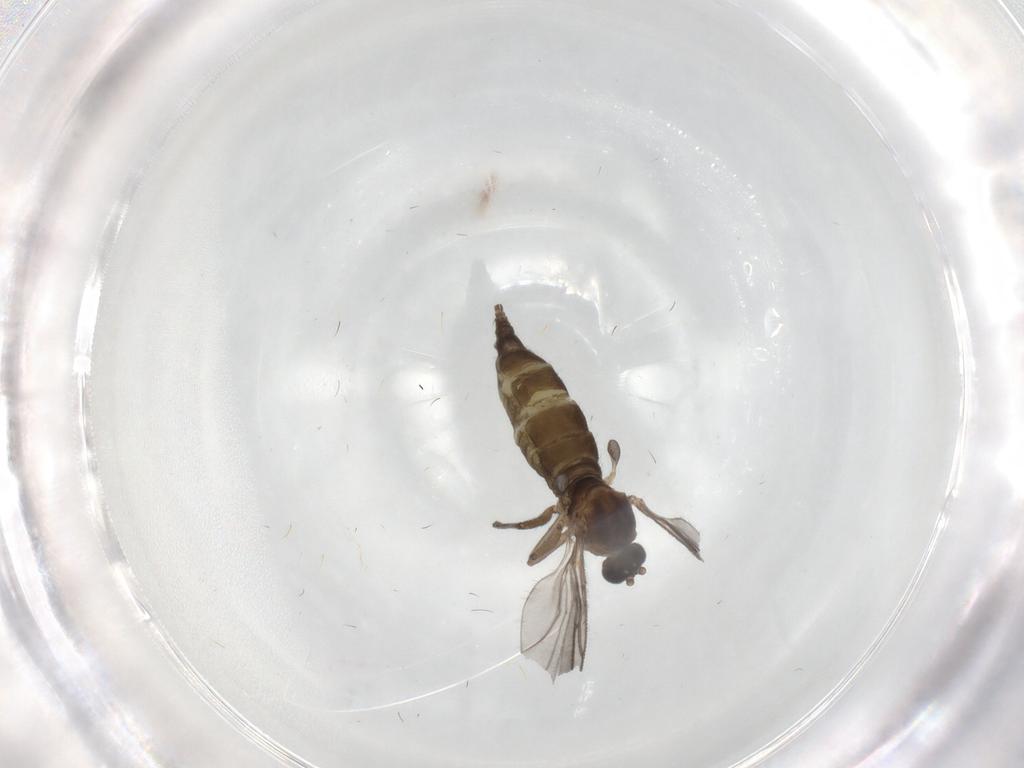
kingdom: Animalia
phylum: Arthropoda
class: Insecta
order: Diptera
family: Sciaridae
